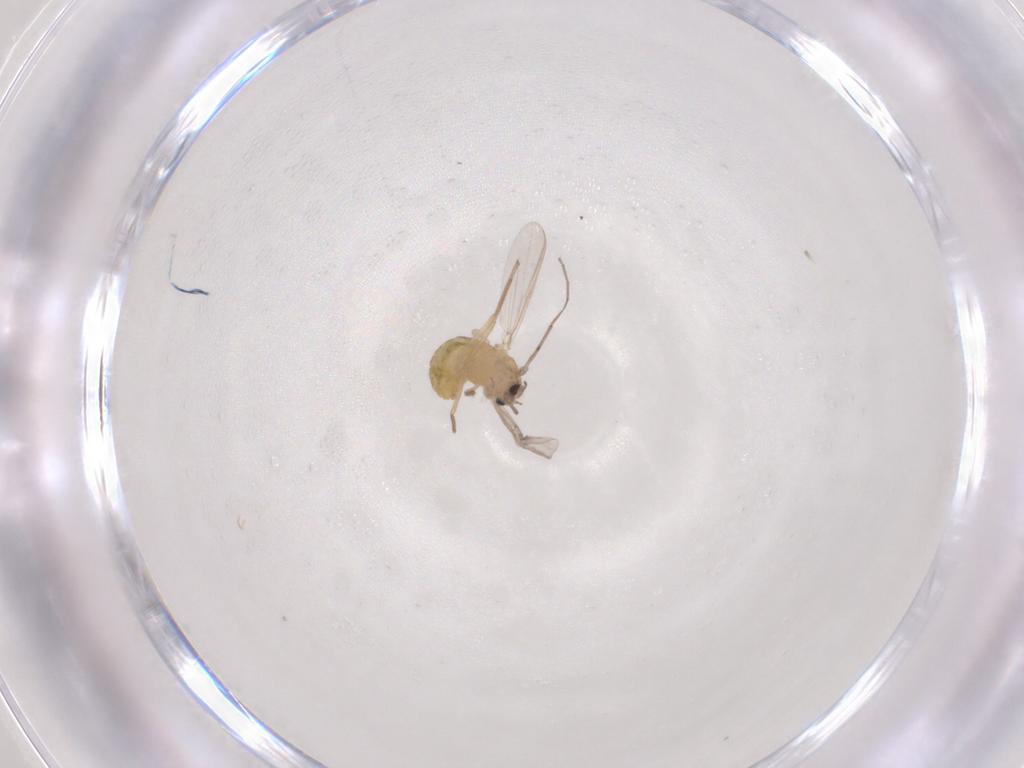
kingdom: Animalia
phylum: Arthropoda
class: Insecta
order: Diptera
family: Chironomidae
